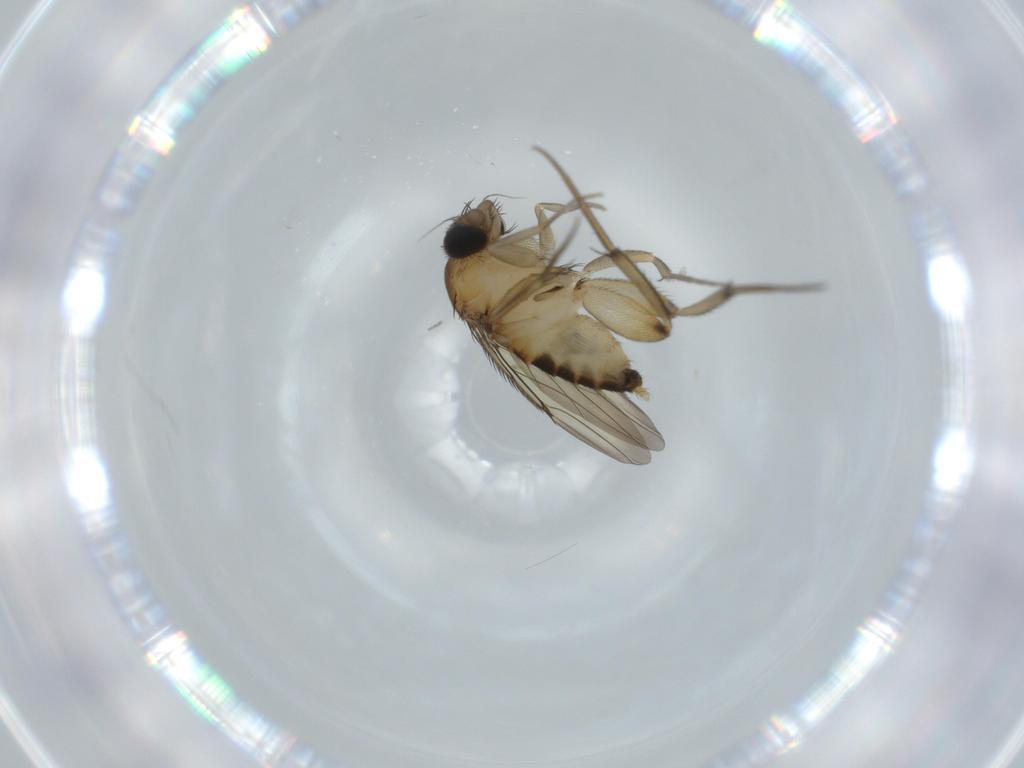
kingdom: Animalia
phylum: Arthropoda
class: Insecta
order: Diptera
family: Phoridae
